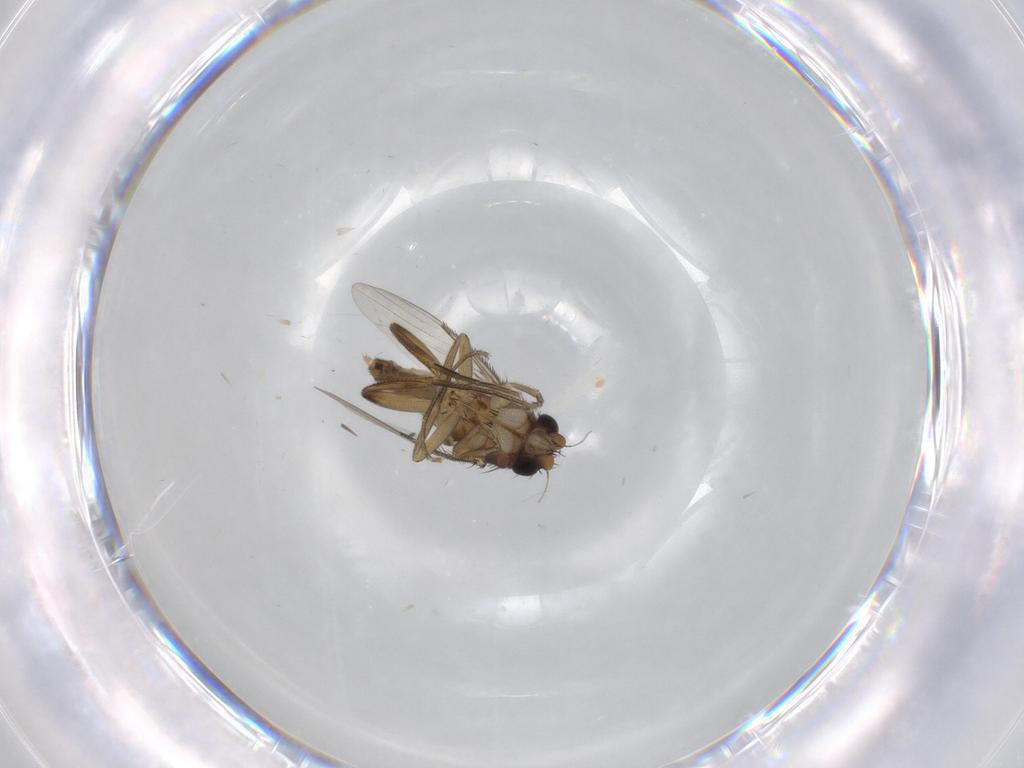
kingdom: Animalia
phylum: Arthropoda
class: Insecta
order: Diptera
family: Phoridae
